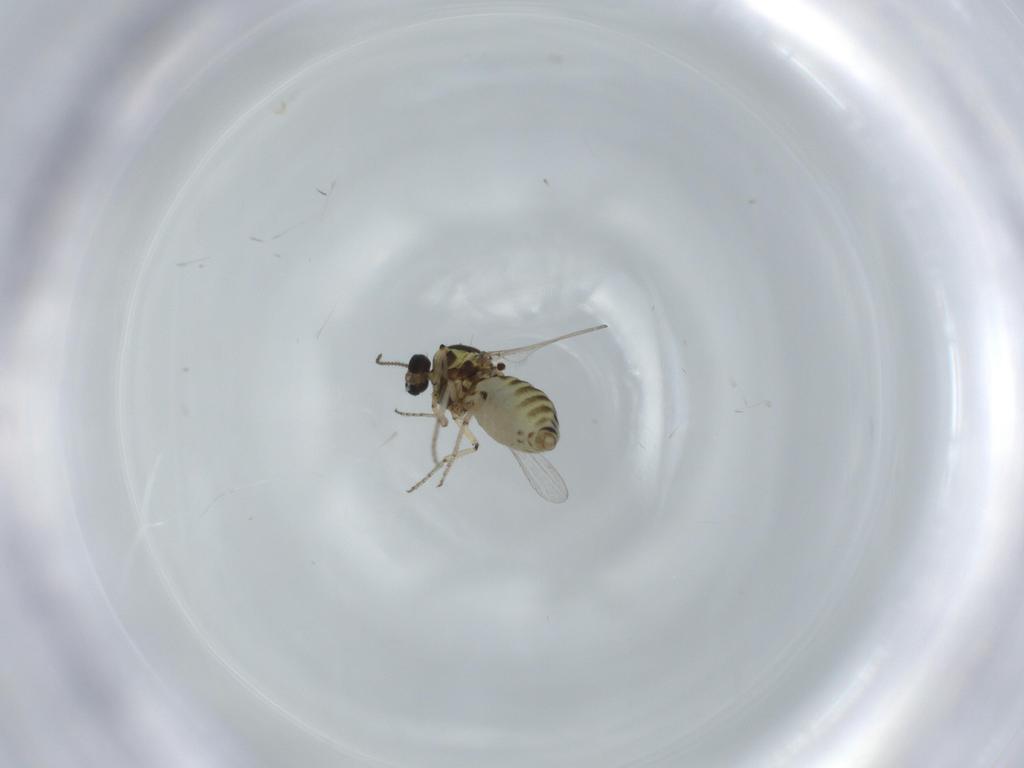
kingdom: Animalia
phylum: Arthropoda
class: Insecta
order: Diptera
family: Ceratopogonidae
